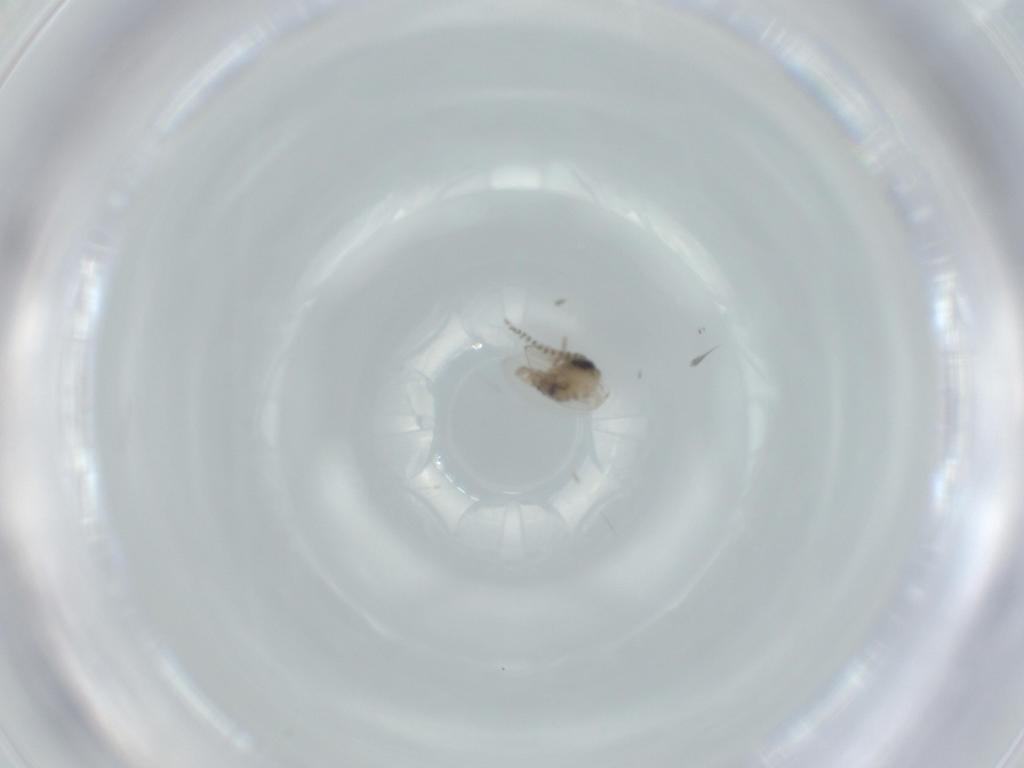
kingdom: Animalia
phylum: Arthropoda
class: Insecta
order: Diptera
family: Psychodidae
